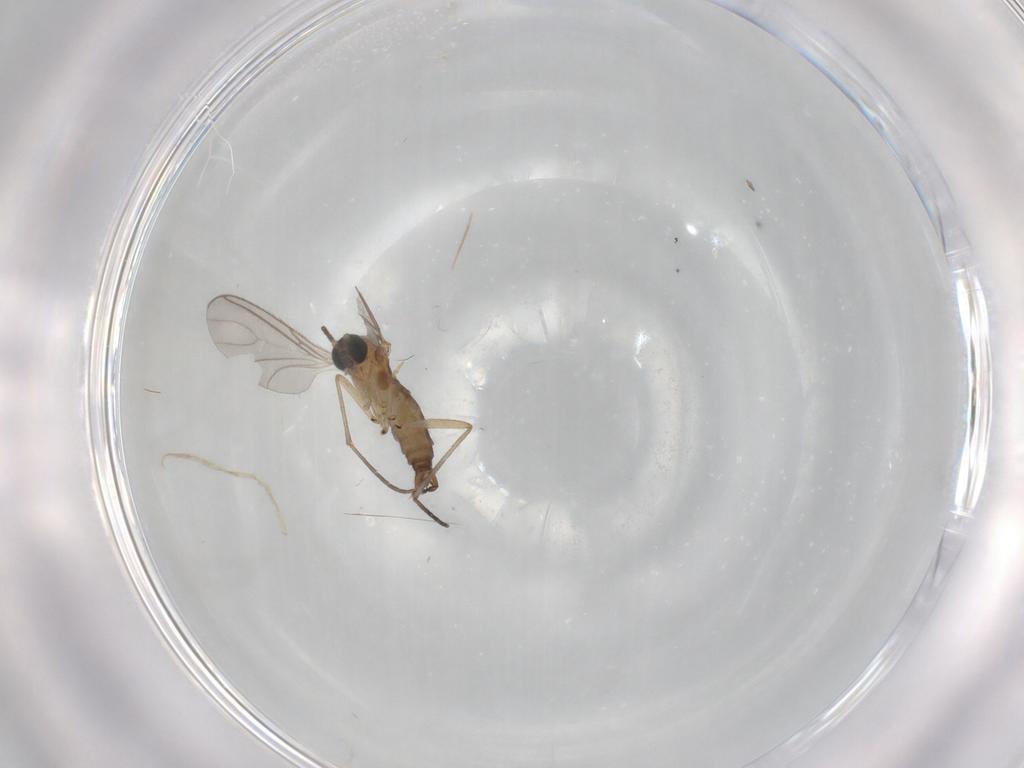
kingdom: Animalia
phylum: Arthropoda
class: Insecta
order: Diptera
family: Sciaridae
